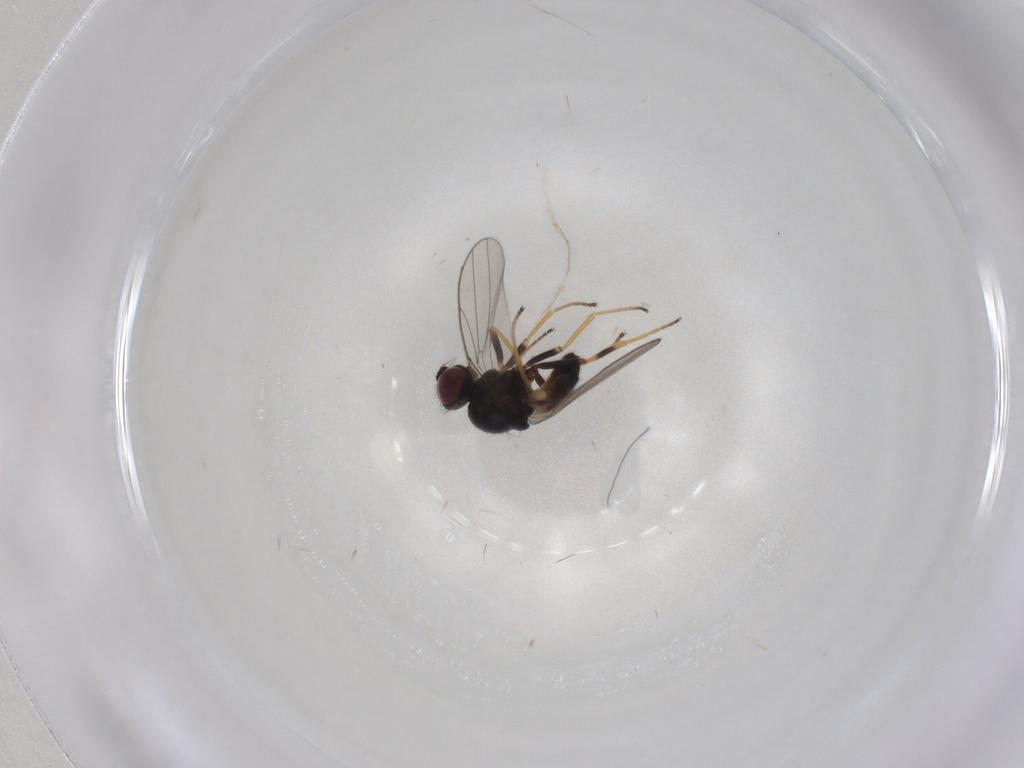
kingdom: Animalia
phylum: Arthropoda
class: Insecta
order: Diptera
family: Chloropidae
